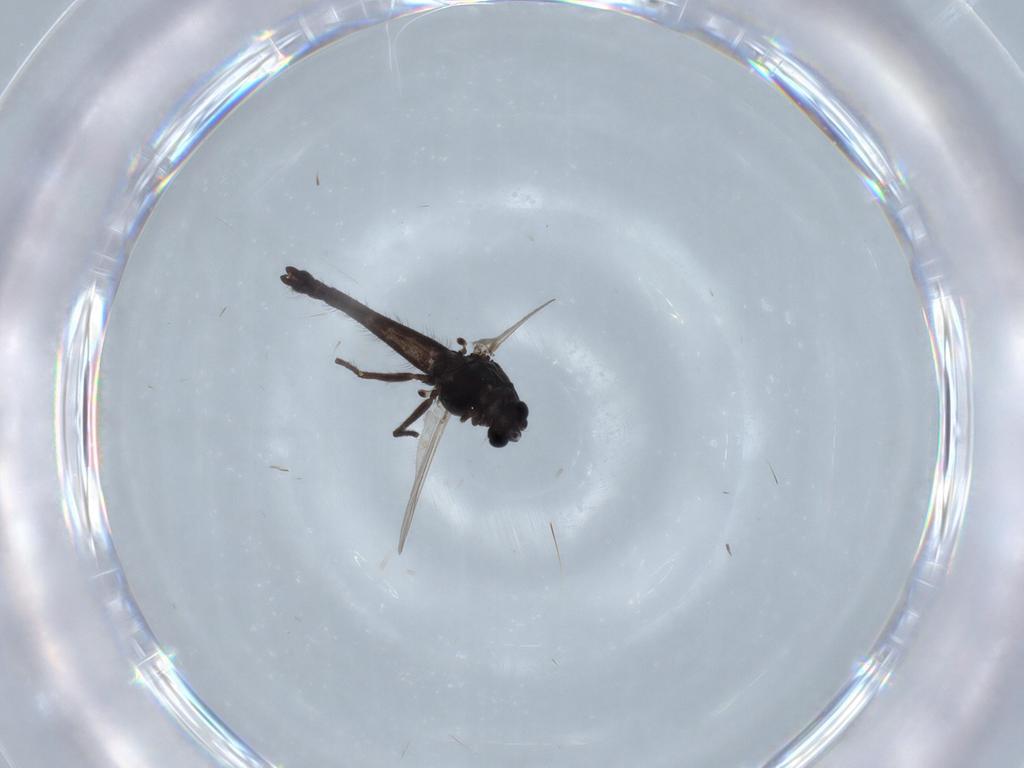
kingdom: Animalia
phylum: Arthropoda
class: Insecta
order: Diptera
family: Chironomidae
